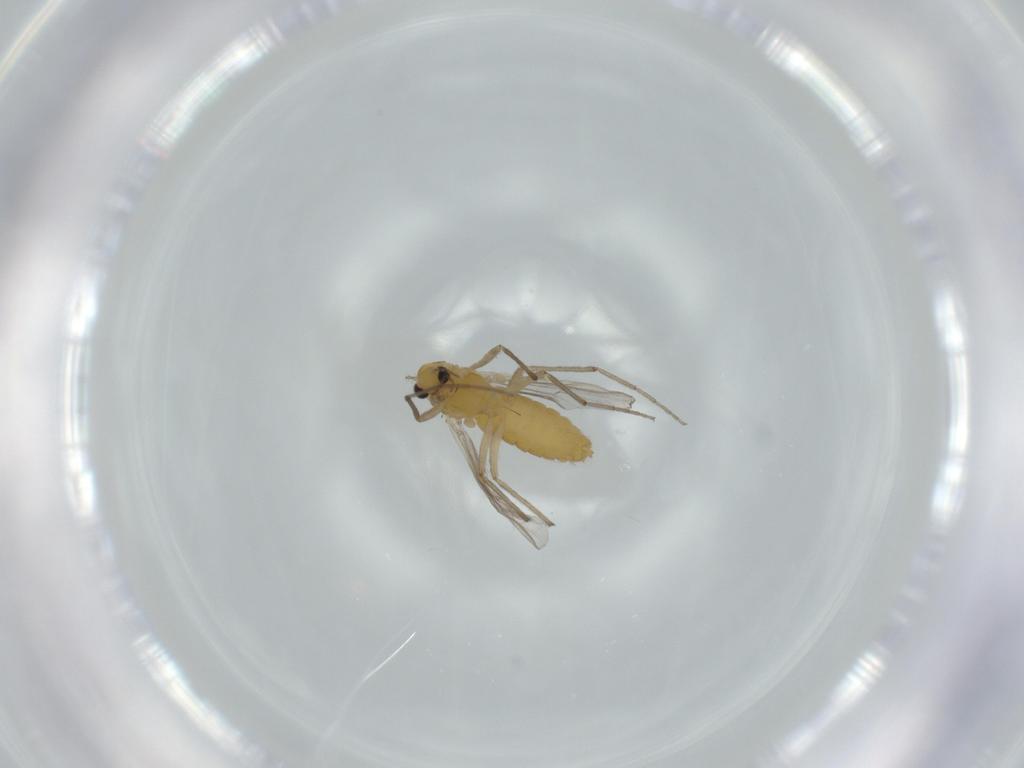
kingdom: Animalia
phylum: Arthropoda
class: Insecta
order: Diptera
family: Chironomidae
